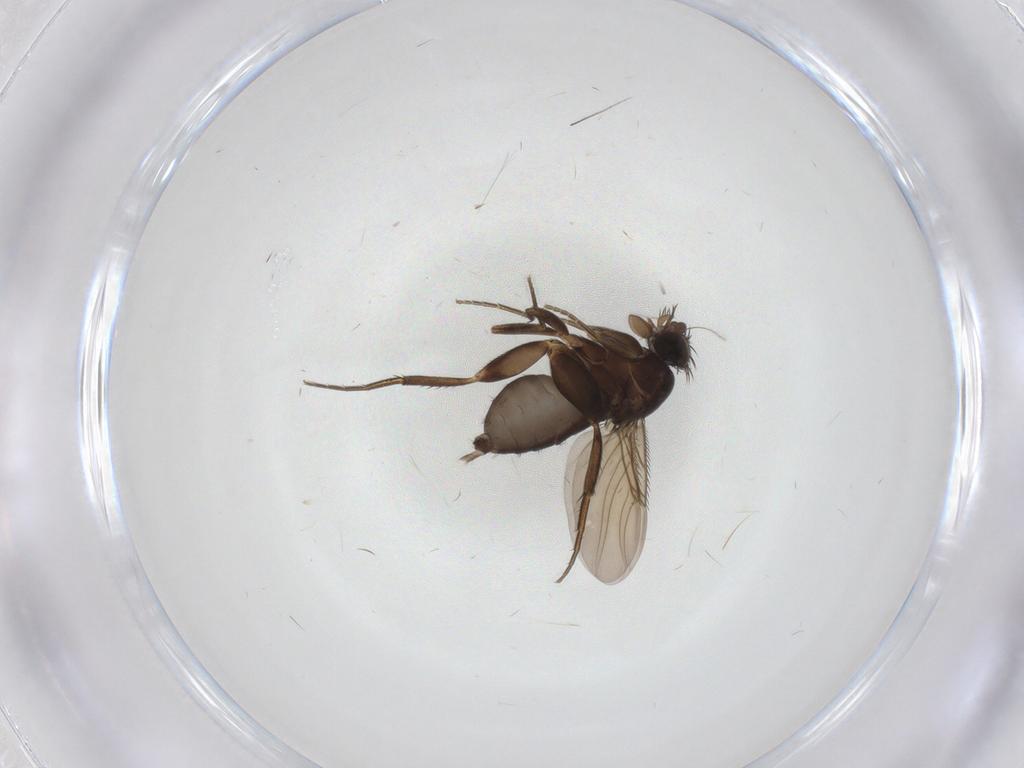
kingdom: Animalia
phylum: Arthropoda
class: Insecta
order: Diptera
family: Phoridae
